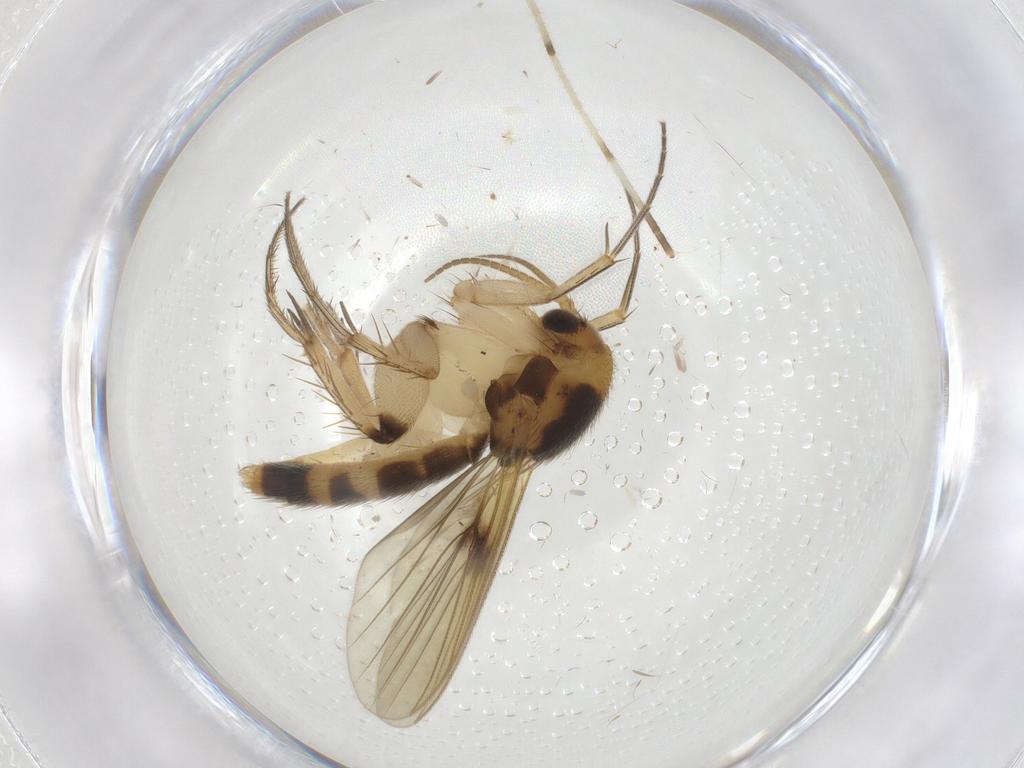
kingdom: Animalia
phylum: Arthropoda
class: Insecta
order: Diptera
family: Mycetophilidae
